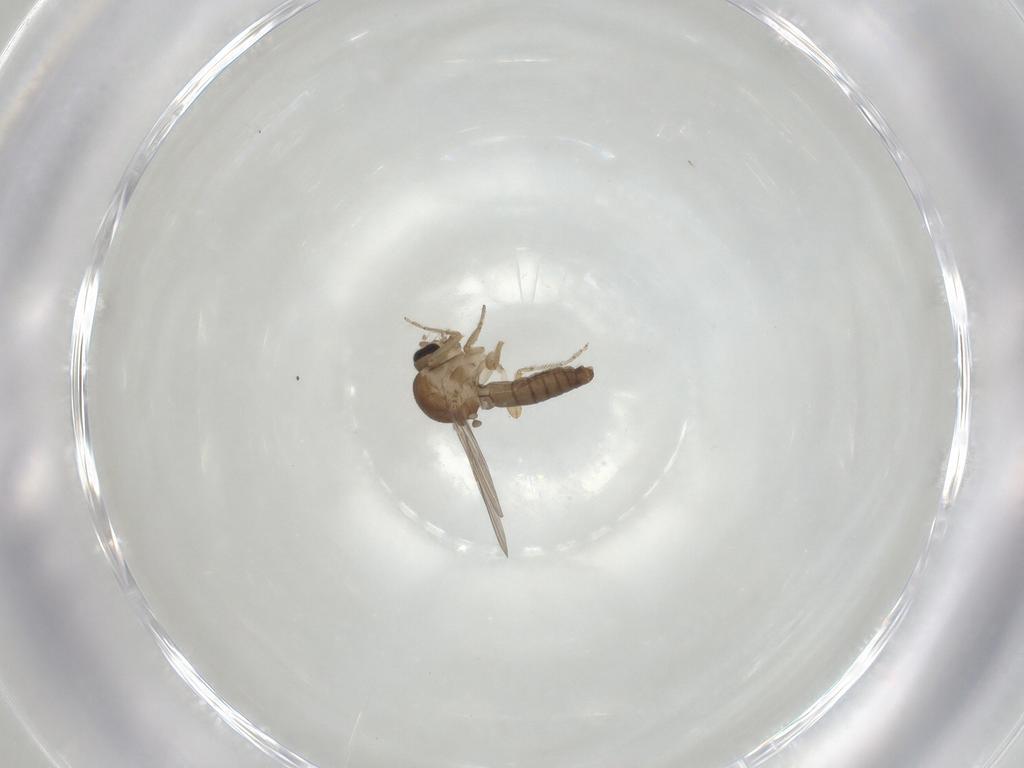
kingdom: Animalia
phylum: Arthropoda
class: Insecta
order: Diptera
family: Ceratopogonidae
